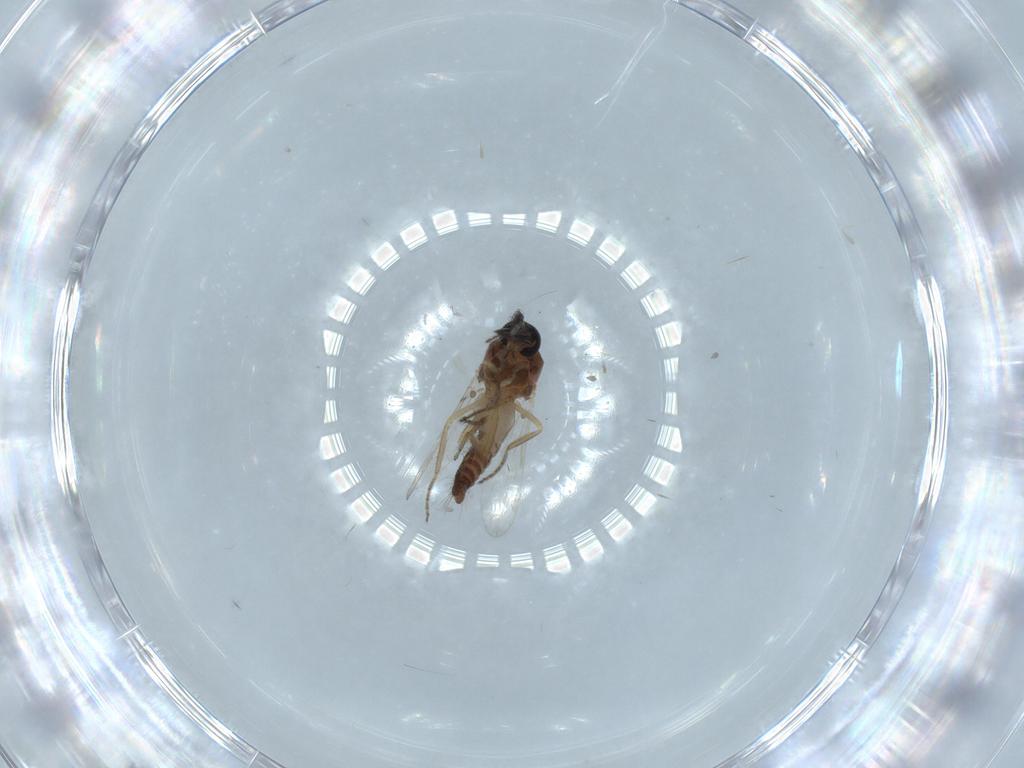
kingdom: Animalia
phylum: Arthropoda
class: Insecta
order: Diptera
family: Ceratopogonidae
